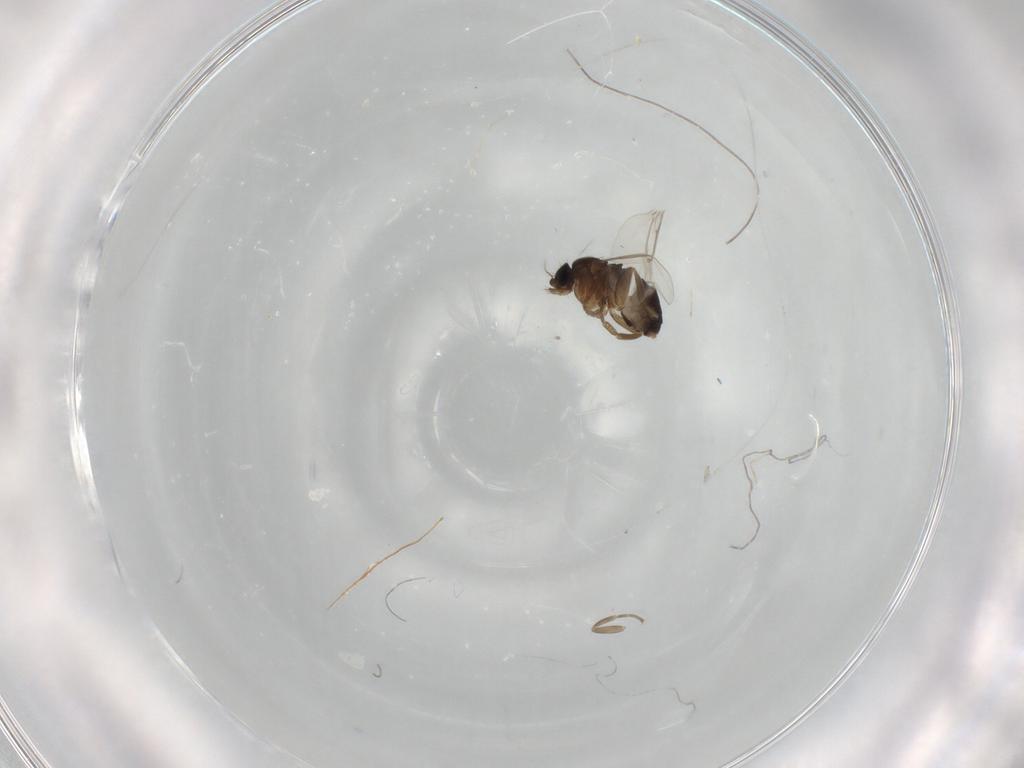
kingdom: Animalia
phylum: Arthropoda
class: Insecta
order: Diptera
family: Phoridae
